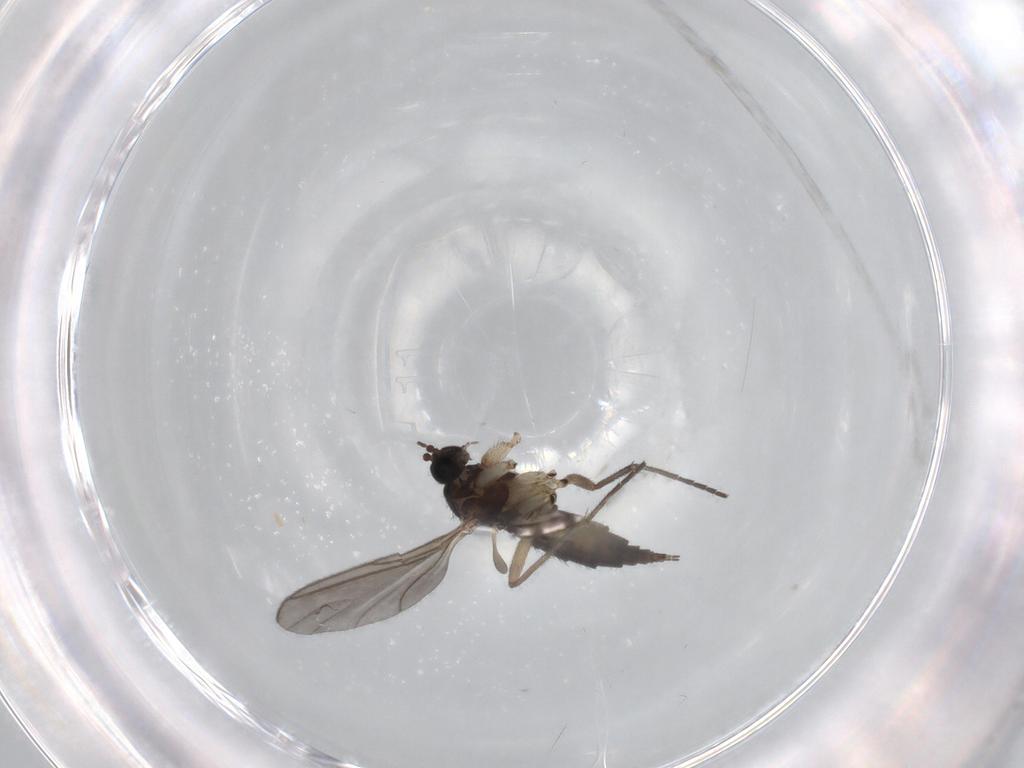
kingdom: Animalia
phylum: Arthropoda
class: Insecta
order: Diptera
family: Sciaridae
